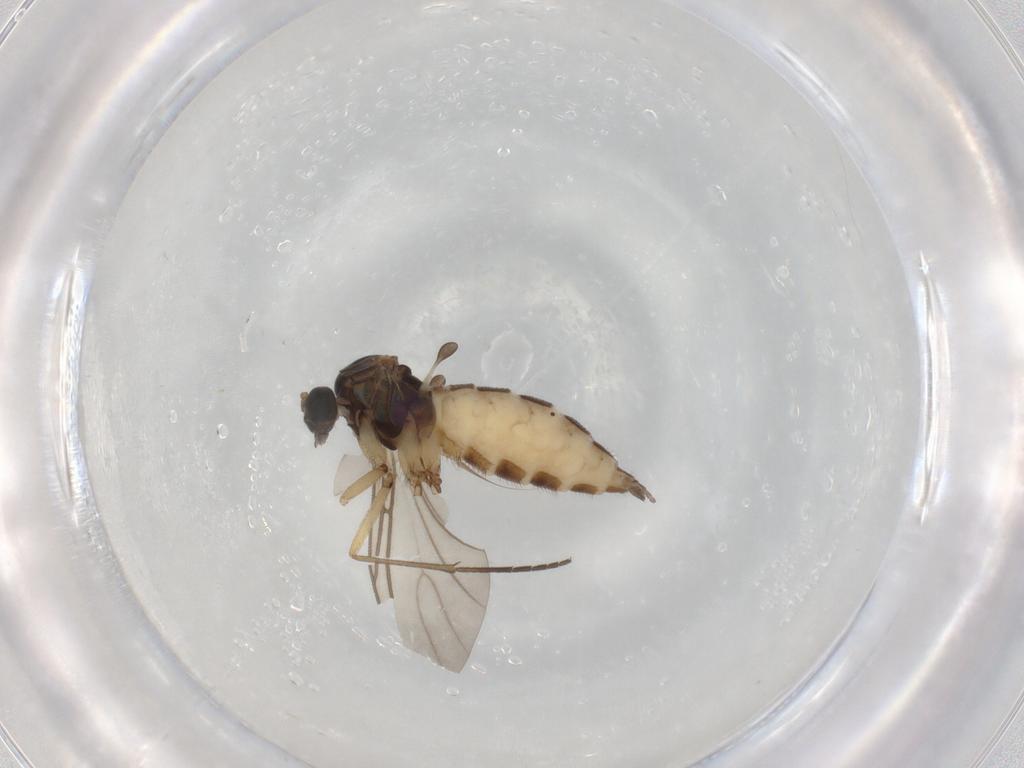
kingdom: Animalia
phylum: Arthropoda
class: Insecta
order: Diptera
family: Sciaridae
